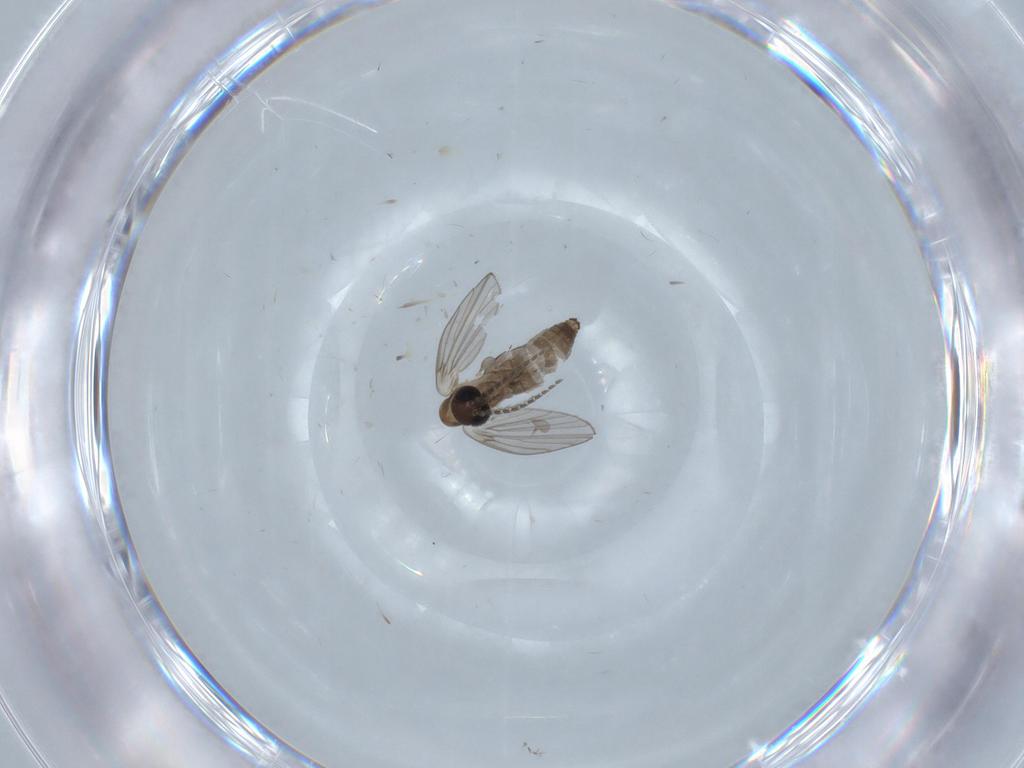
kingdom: Animalia
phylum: Arthropoda
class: Insecta
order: Diptera
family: Psychodidae
